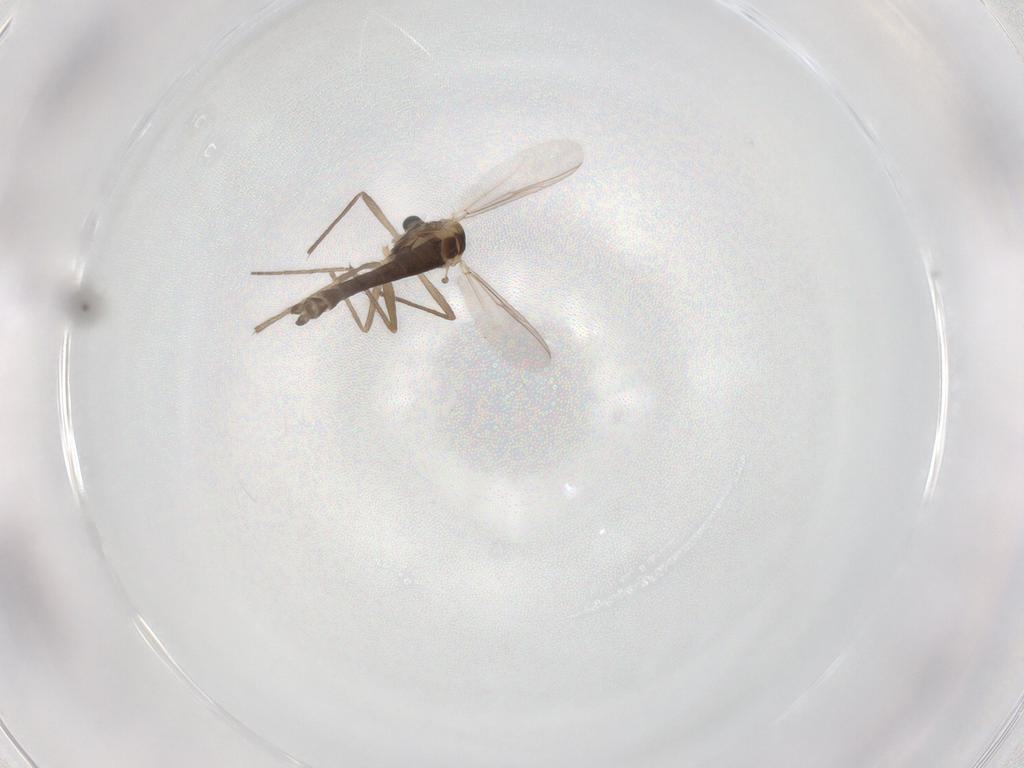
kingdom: Animalia
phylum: Arthropoda
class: Insecta
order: Diptera
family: Chironomidae
